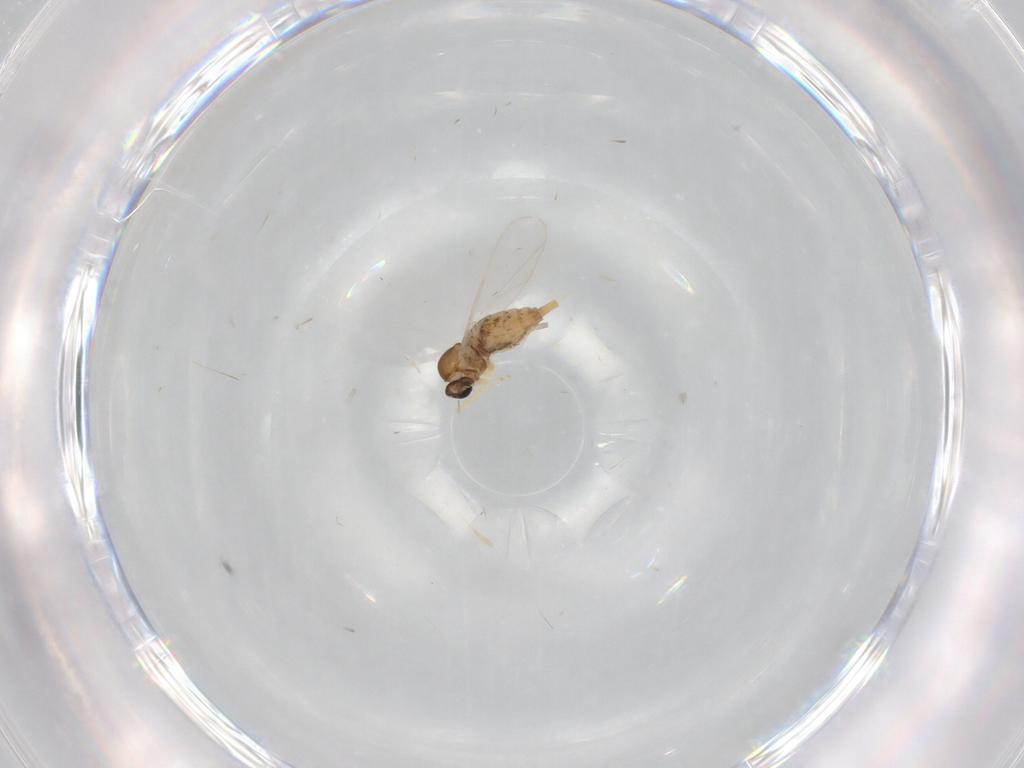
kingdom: Animalia
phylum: Arthropoda
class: Insecta
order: Diptera
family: Cecidomyiidae
